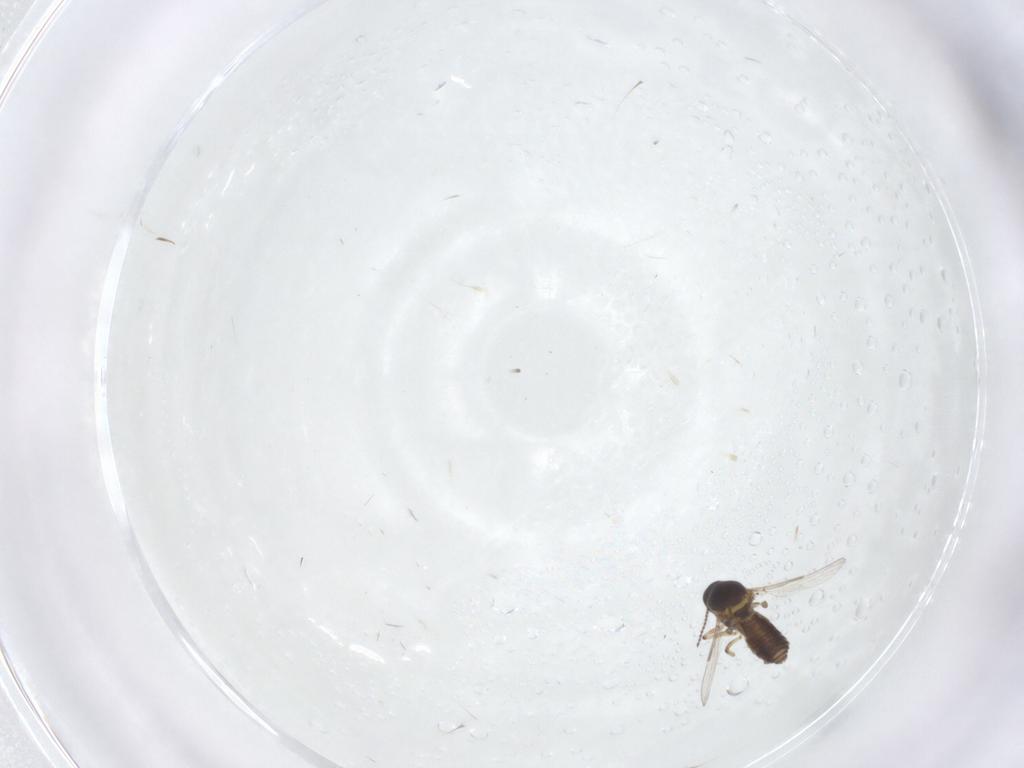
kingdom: Animalia
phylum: Arthropoda
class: Insecta
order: Diptera
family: Ceratopogonidae
